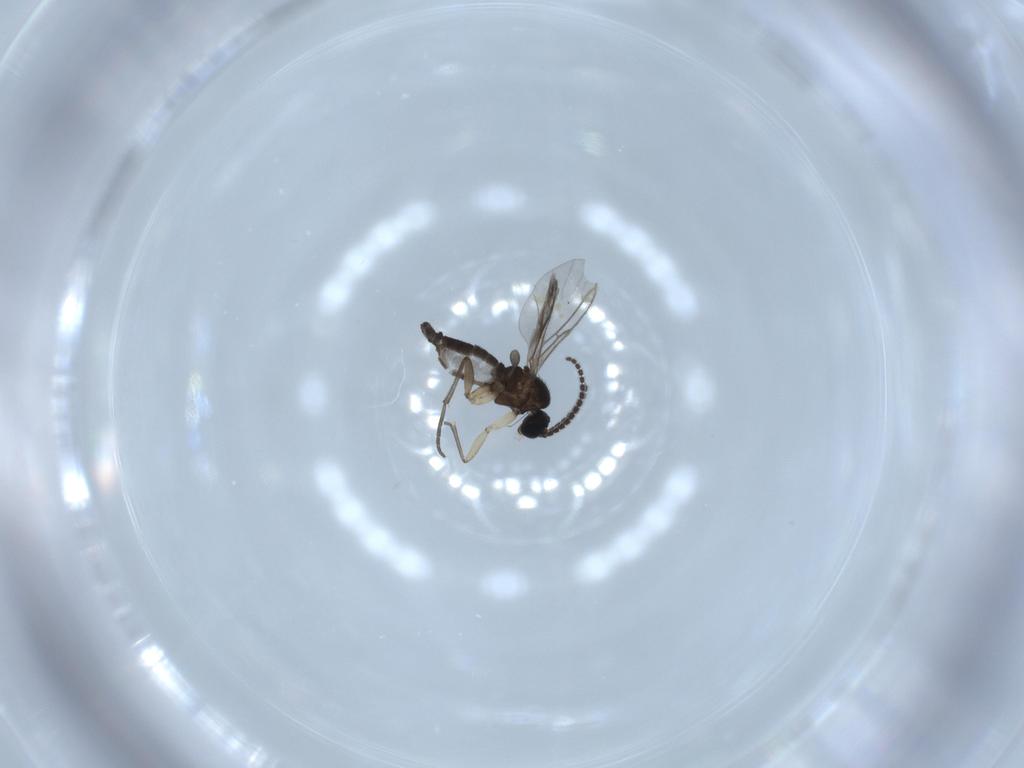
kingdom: Animalia
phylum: Arthropoda
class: Insecta
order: Diptera
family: Sciaridae
